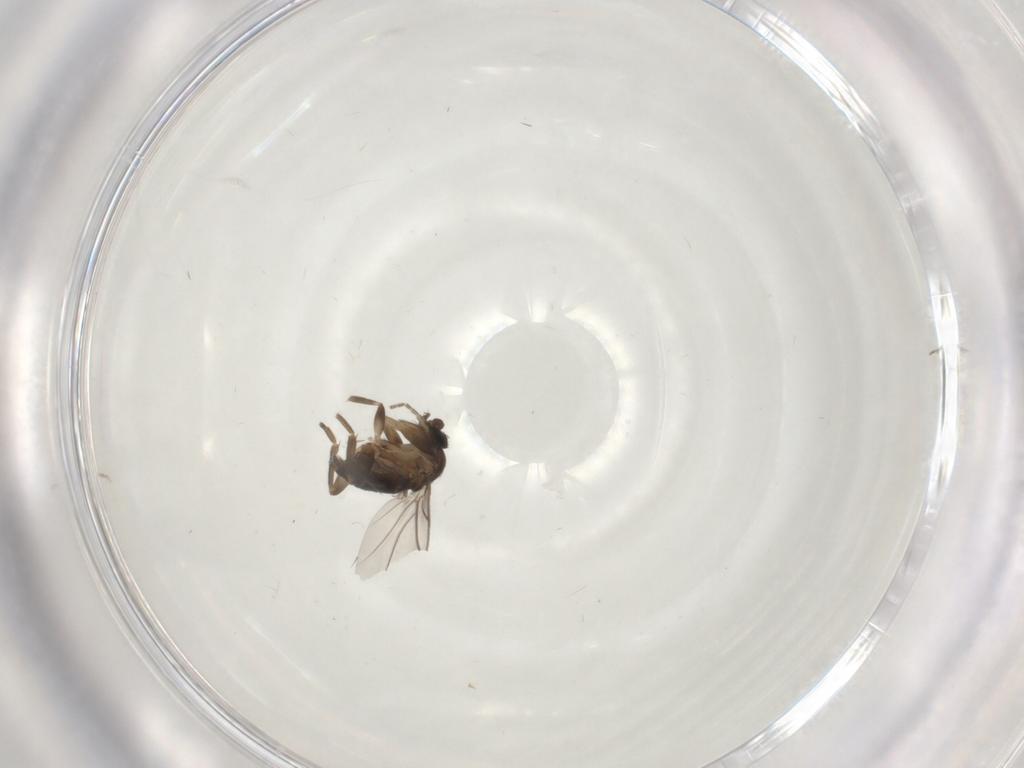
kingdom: Animalia
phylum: Arthropoda
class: Insecta
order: Diptera
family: Phoridae
